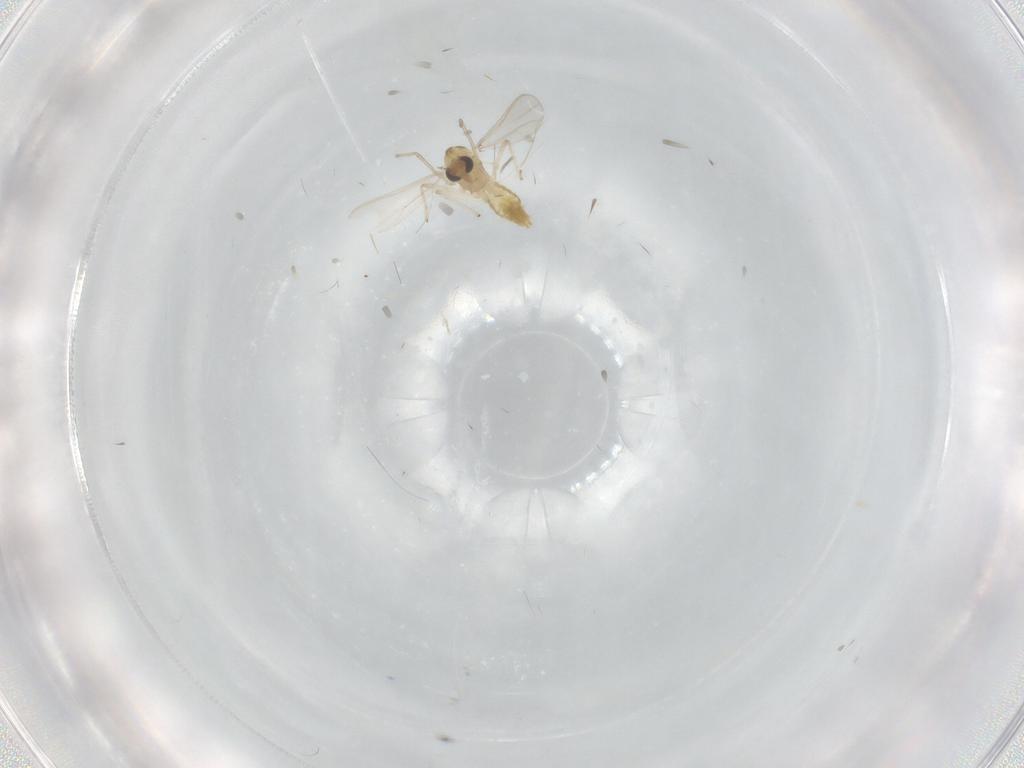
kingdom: Animalia
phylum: Arthropoda
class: Insecta
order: Diptera
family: Chironomidae
